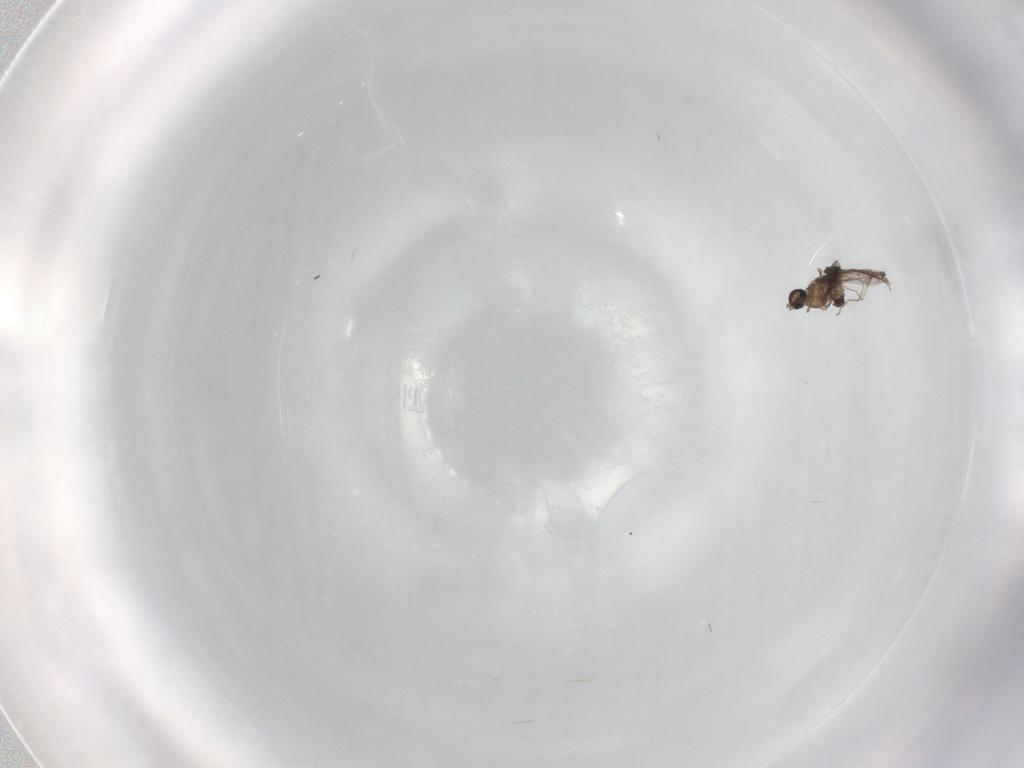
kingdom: Animalia
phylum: Arthropoda
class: Insecta
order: Diptera
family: Cecidomyiidae
